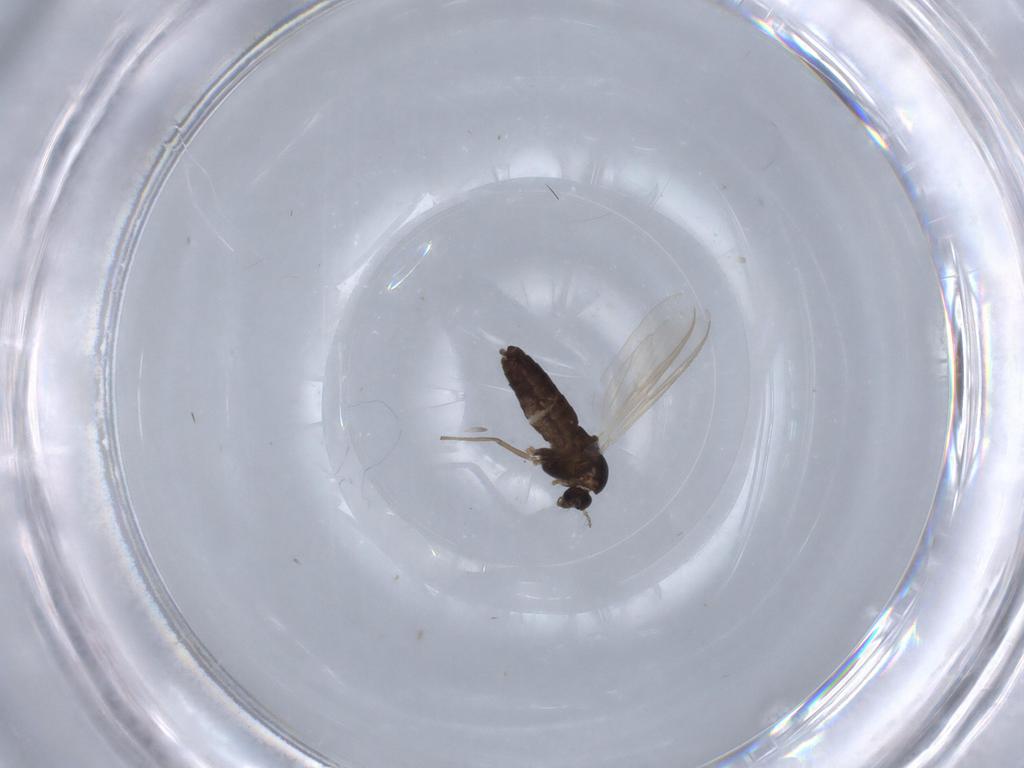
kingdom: Animalia
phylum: Arthropoda
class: Insecta
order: Diptera
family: Chironomidae
